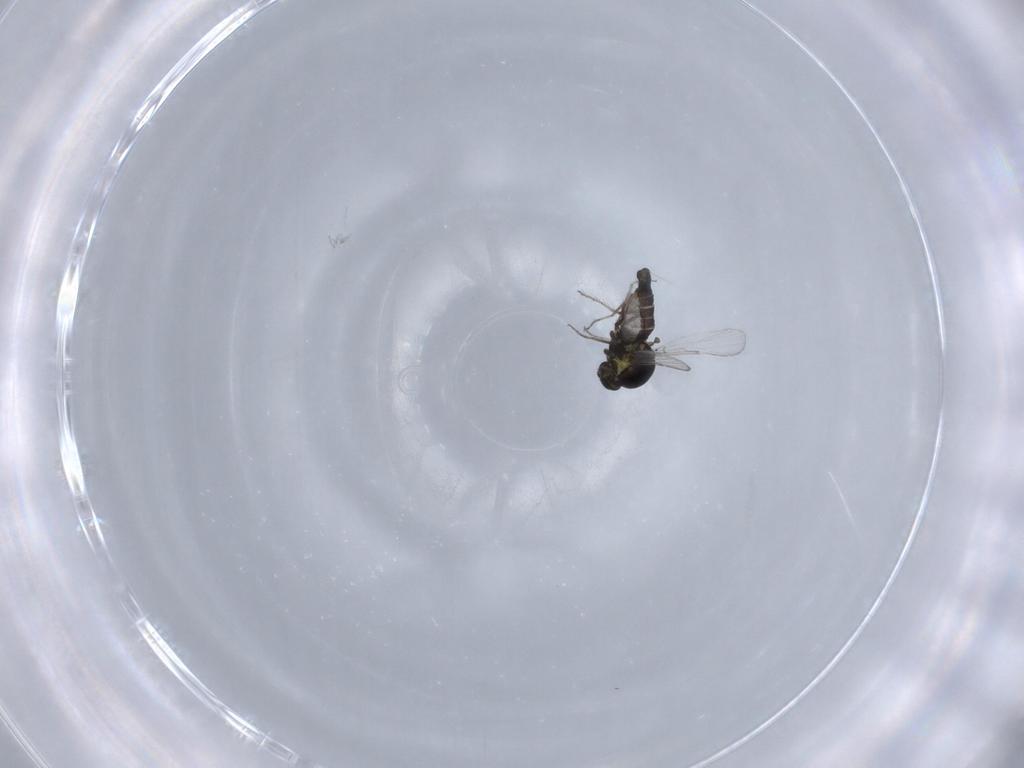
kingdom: Animalia
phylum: Arthropoda
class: Insecta
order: Diptera
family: Ceratopogonidae
